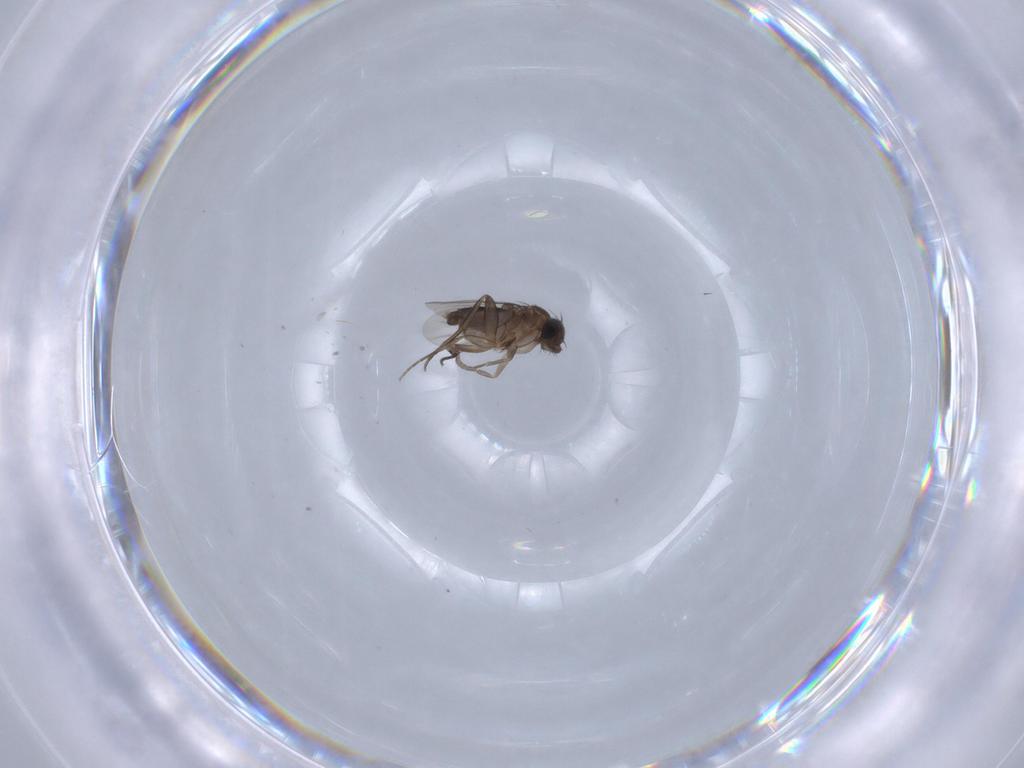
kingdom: Animalia
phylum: Arthropoda
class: Insecta
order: Diptera
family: Phoridae
